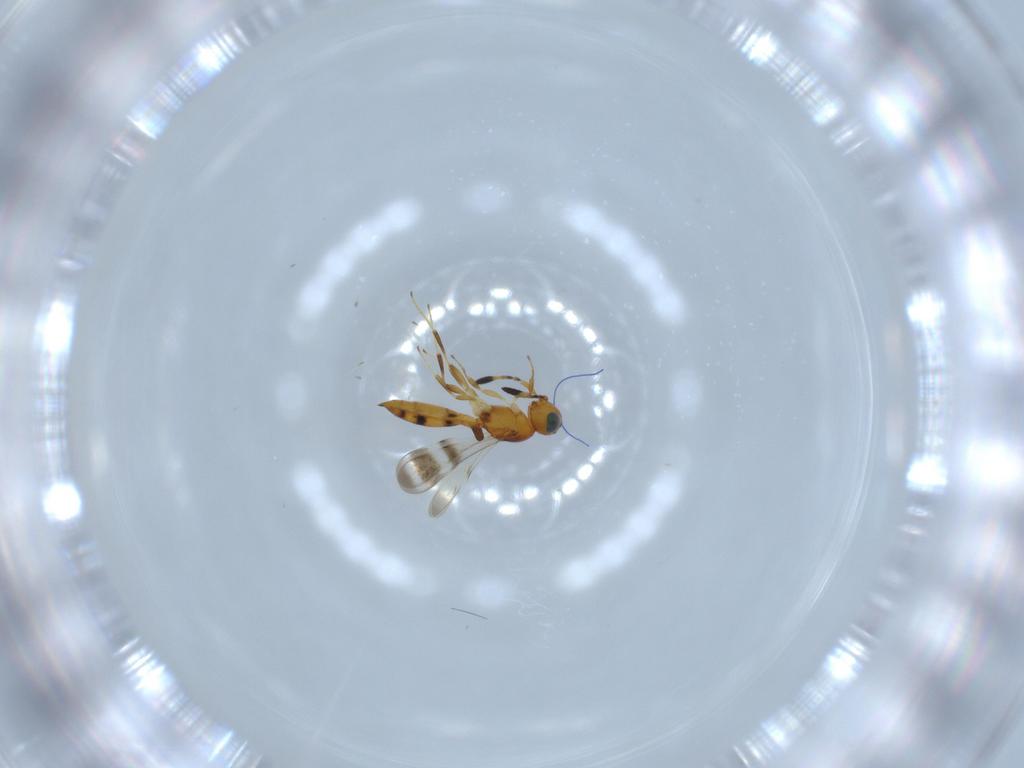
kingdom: Animalia
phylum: Arthropoda
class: Insecta
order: Hymenoptera
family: Scelionidae
